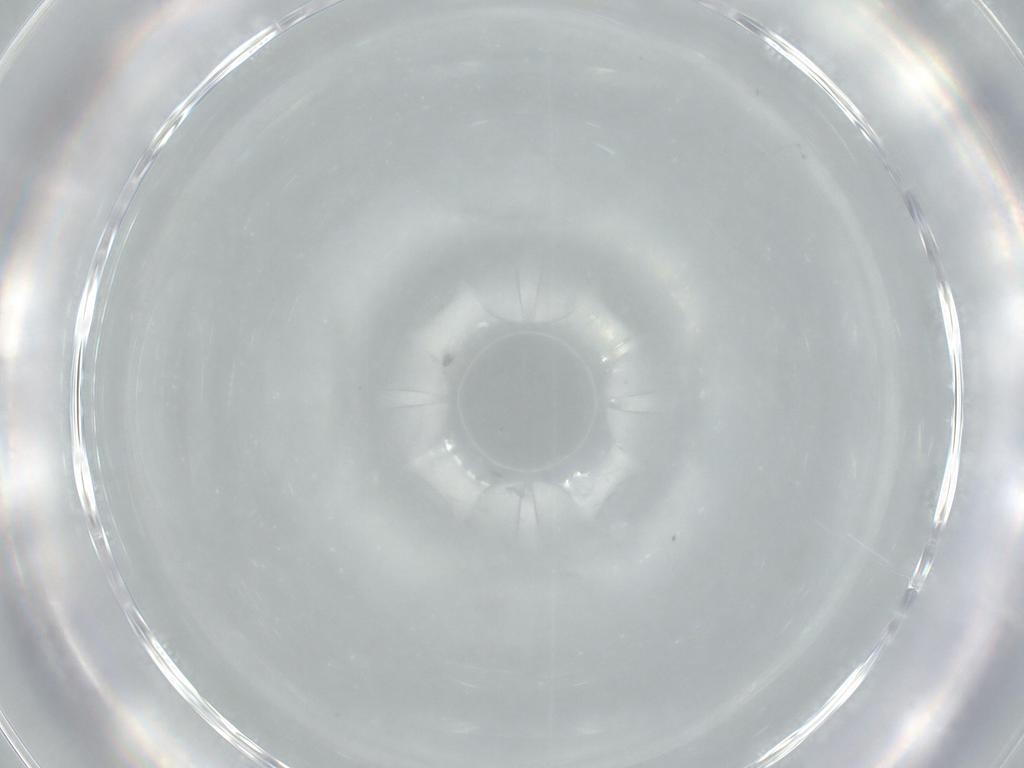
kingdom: Animalia
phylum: Arthropoda
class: Insecta
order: Diptera
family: Cecidomyiidae
